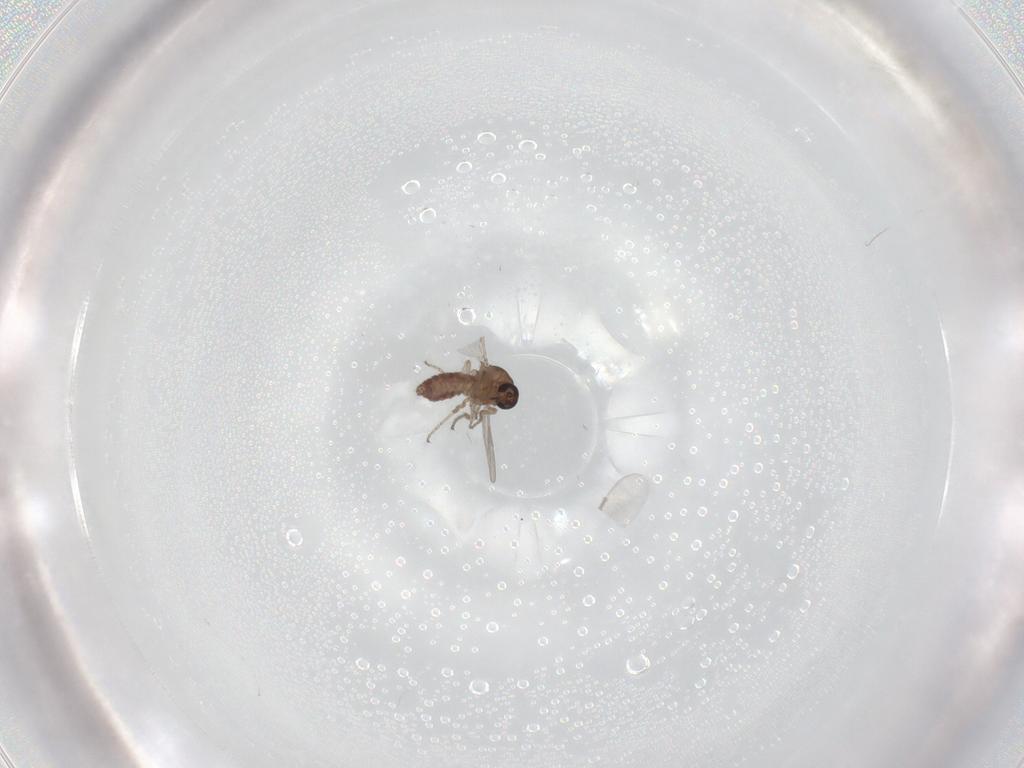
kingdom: Animalia
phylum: Arthropoda
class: Insecta
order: Diptera
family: Ceratopogonidae
